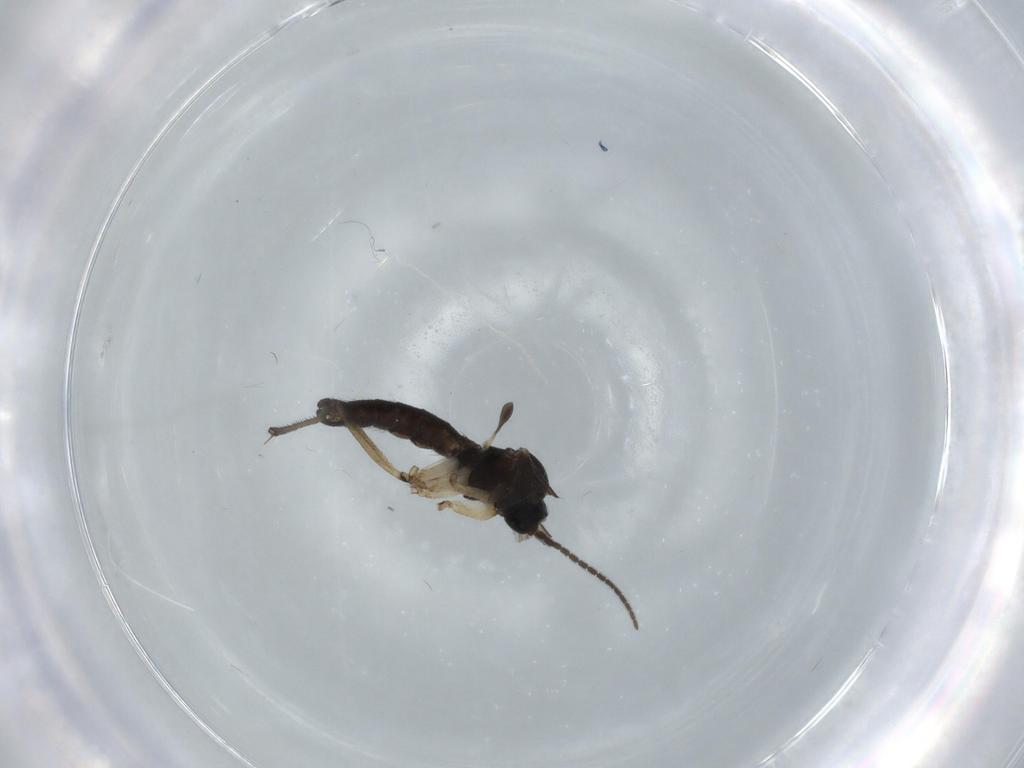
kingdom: Animalia
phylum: Arthropoda
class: Insecta
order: Diptera
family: Sciaridae
